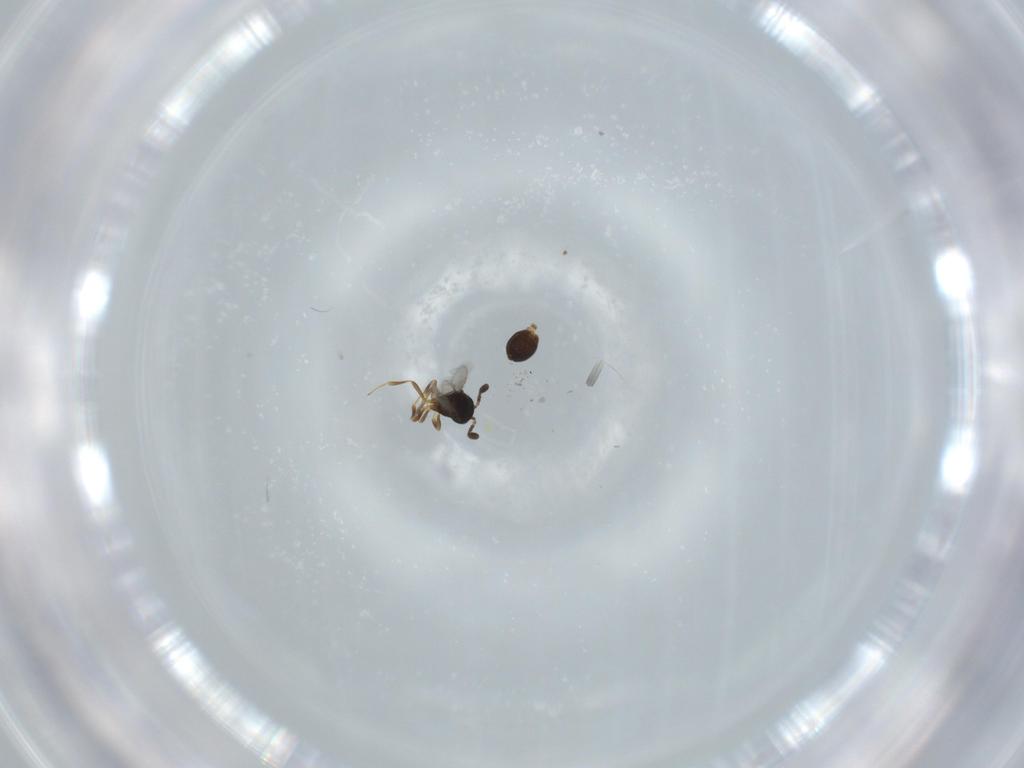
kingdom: Animalia
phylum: Arthropoda
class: Insecta
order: Hymenoptera
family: Scelionidae
